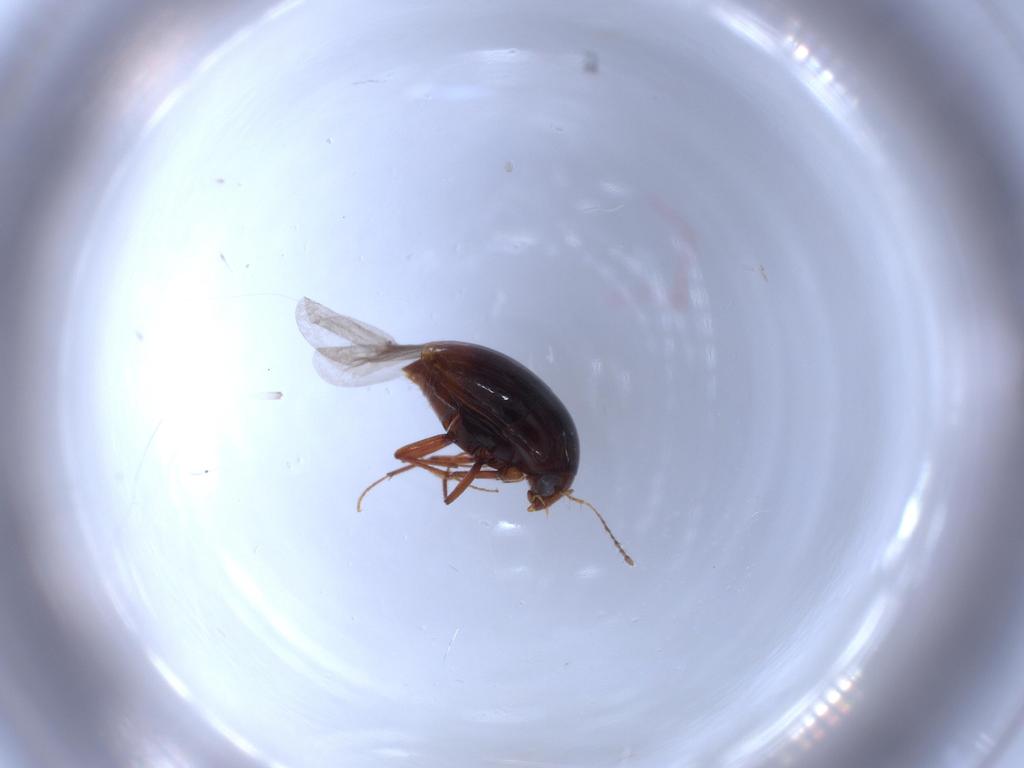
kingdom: Animalia
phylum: Arthropoda
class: Insecta
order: Coleoptera
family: Staphylinidae
